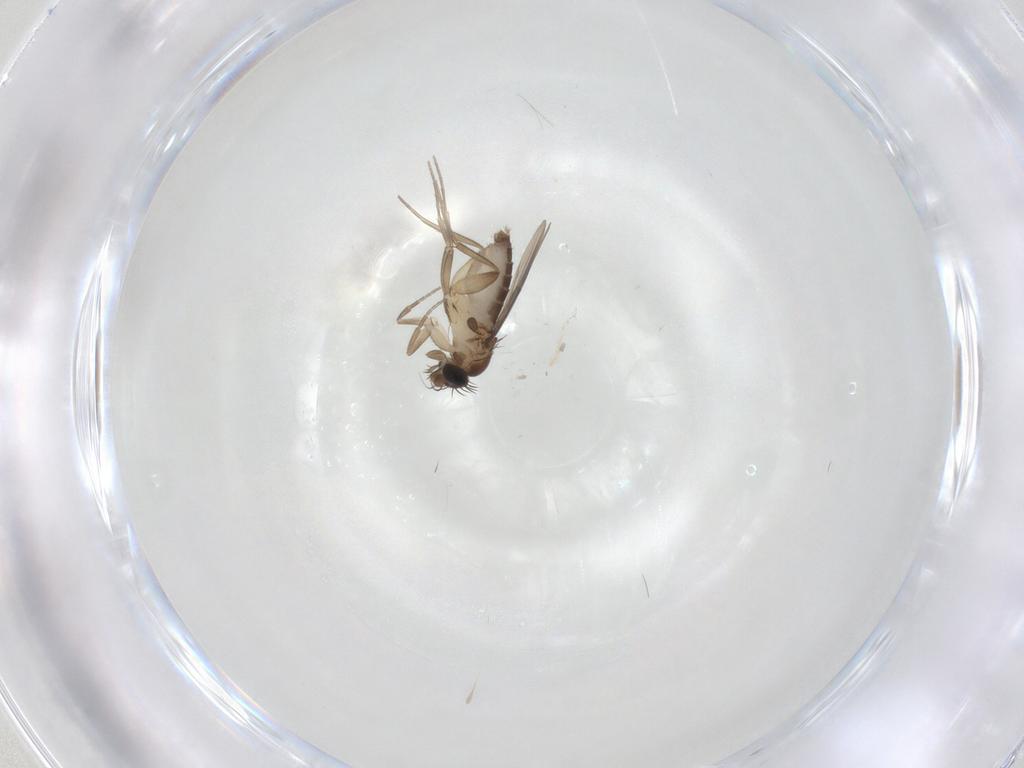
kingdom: Animalia
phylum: Arthropoda
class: Insecta
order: Diptera
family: Phoridae
